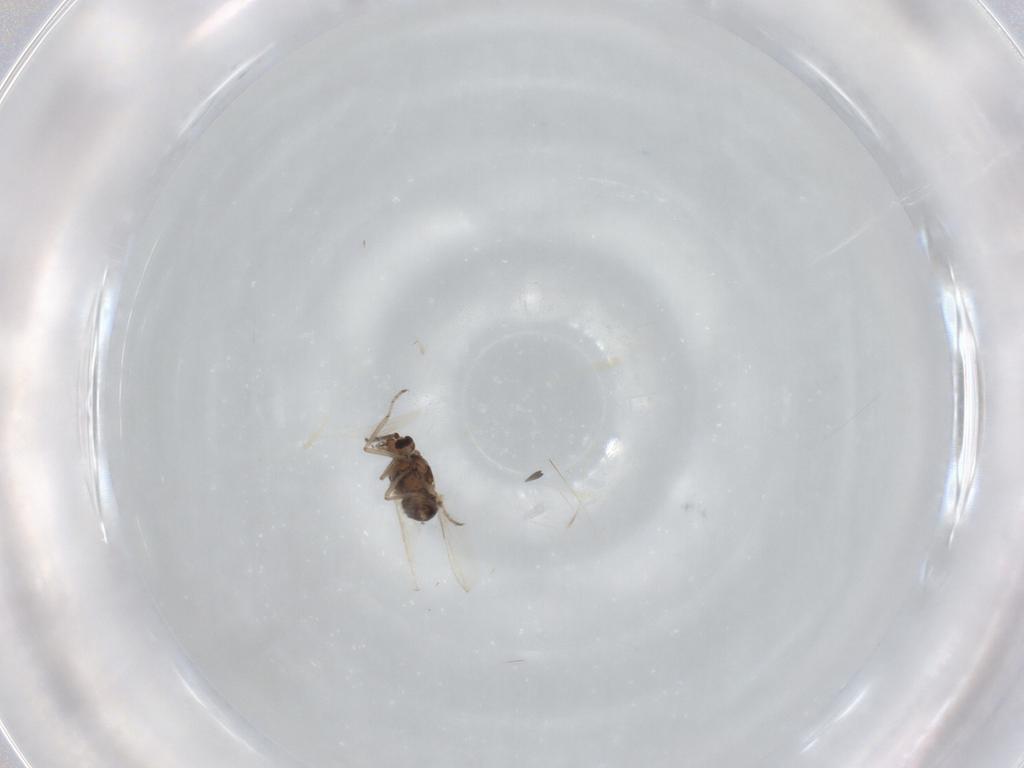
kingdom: Animalia
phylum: Arthropoda
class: Insecta
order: Diptera
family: Ceratopogonidae
